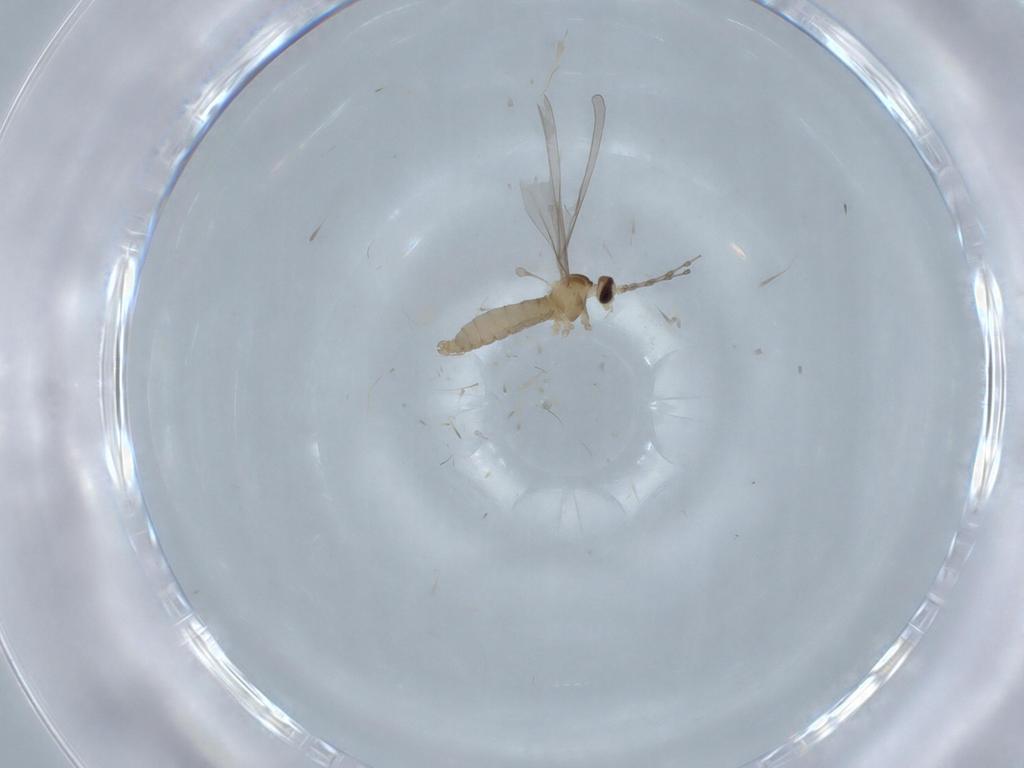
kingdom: Animalia
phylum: Arthropoda
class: Insecta
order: Diptera
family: Cecidomyiidae
